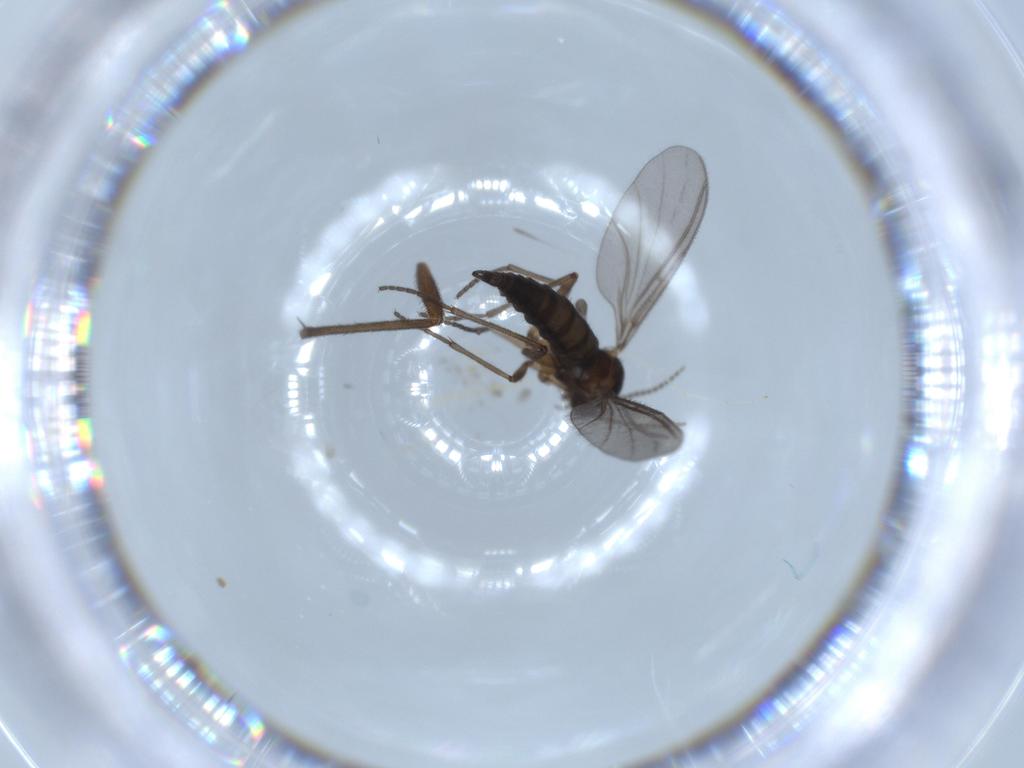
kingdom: Animalia
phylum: Arthropoda
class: Insecta
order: Diptera
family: Sciaridae
